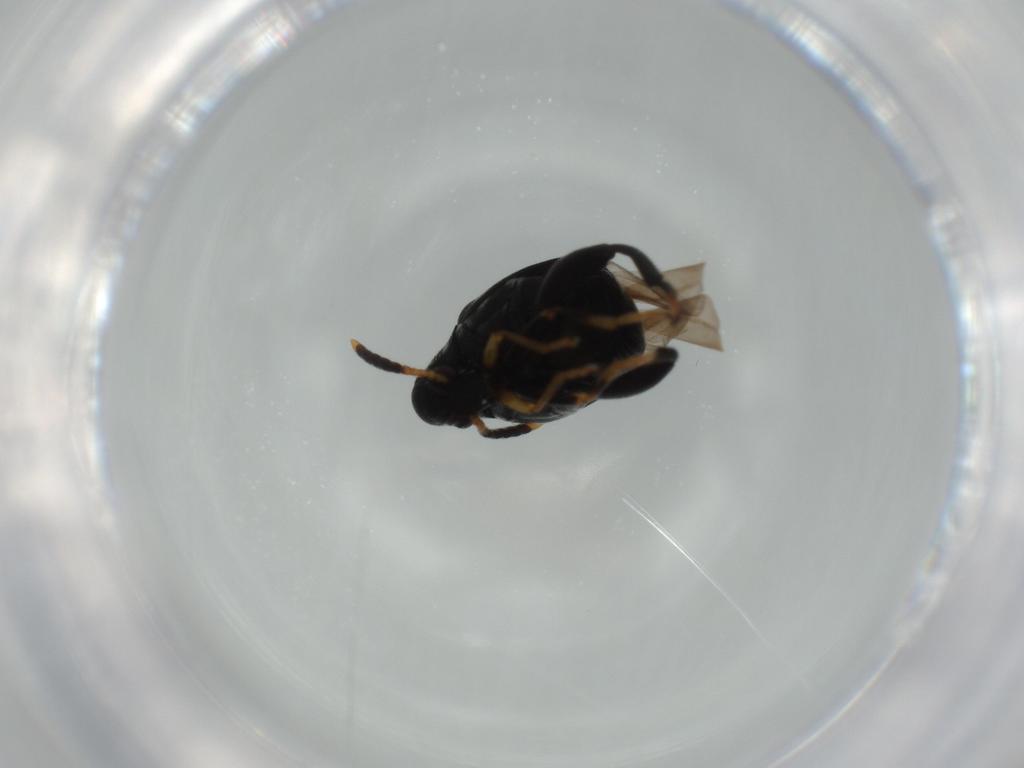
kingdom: Animalia
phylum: Arthropoda
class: Insecta
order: Coleoptera
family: Chrysomelidae
